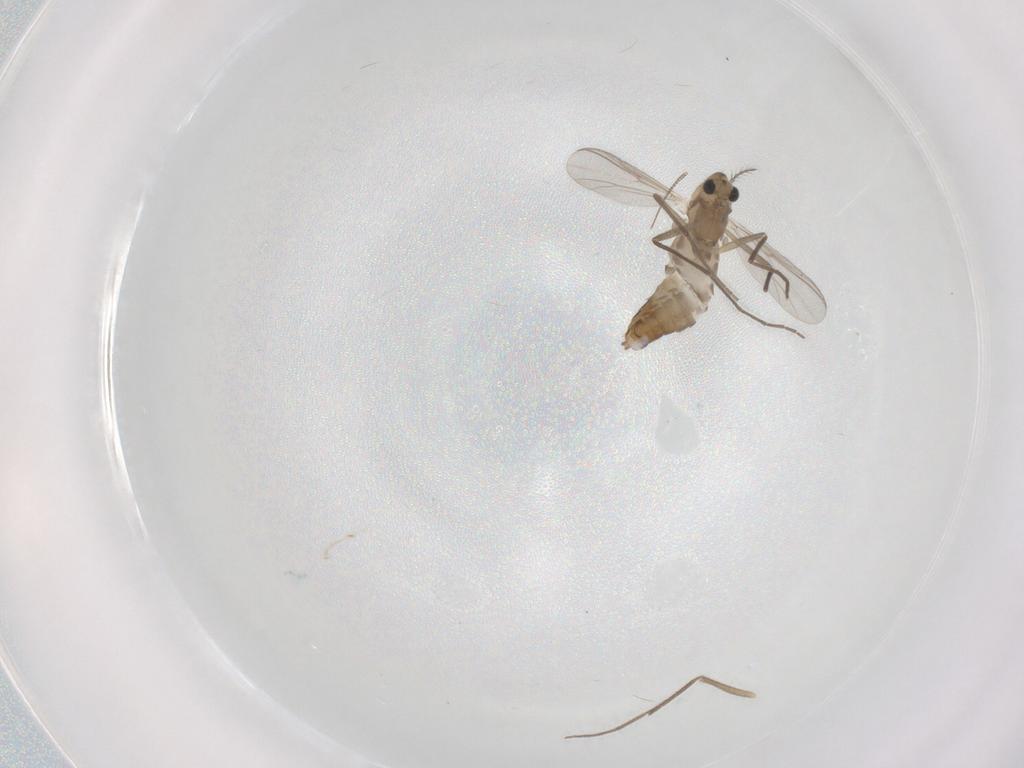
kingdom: Animalia
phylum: Arthropoda
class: Insecta
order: Diptera
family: Chironomidae
